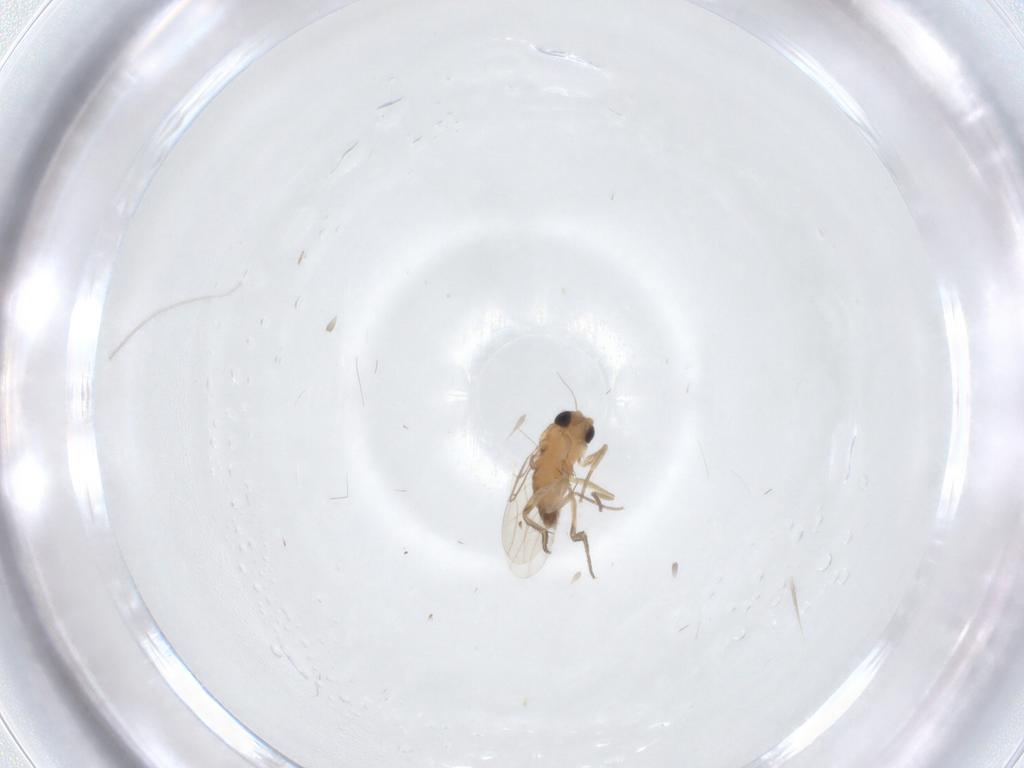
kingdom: Animalia
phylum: Arthropoda
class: Insecta
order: Diptera
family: Phoridae
